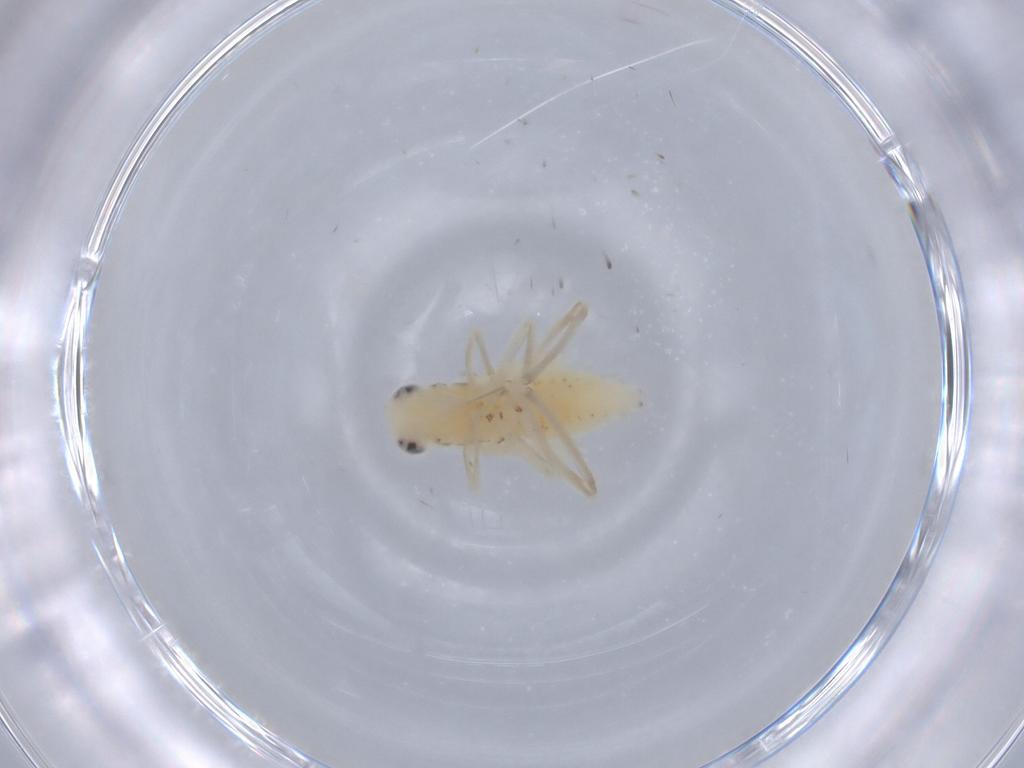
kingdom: Animalia
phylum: Arthropoda
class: Insecta
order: Hemiptera
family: Cicadellidae
